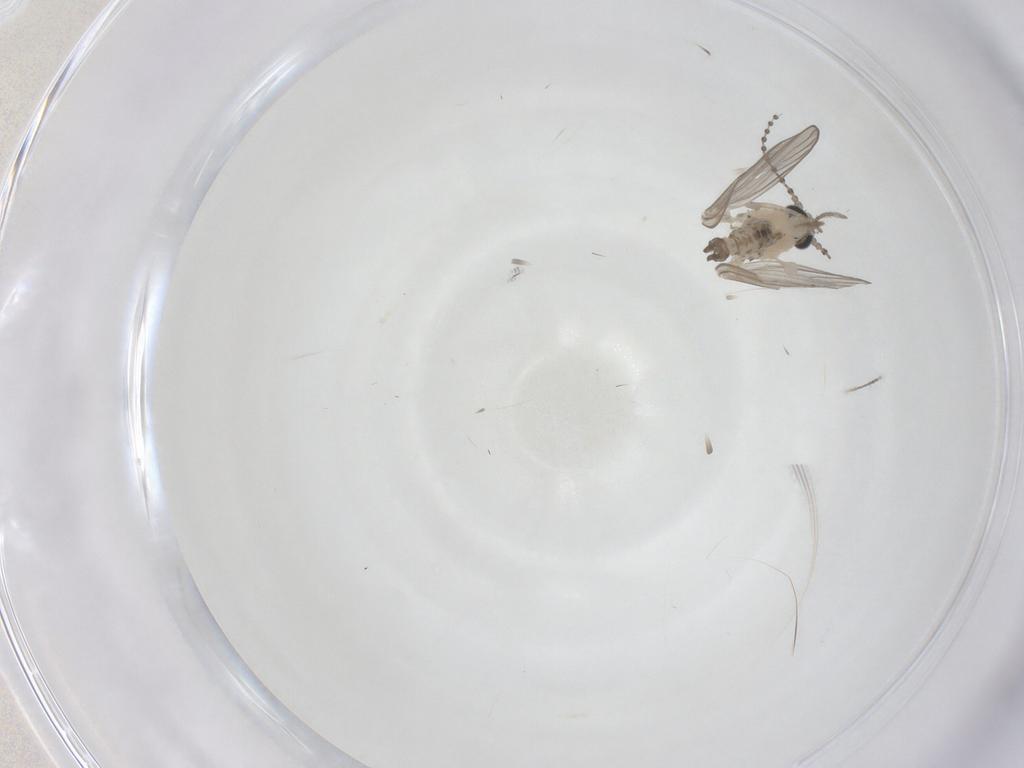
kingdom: Animalia
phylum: Arthropoda
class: Insecta
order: Diptera
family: Psychodidae
